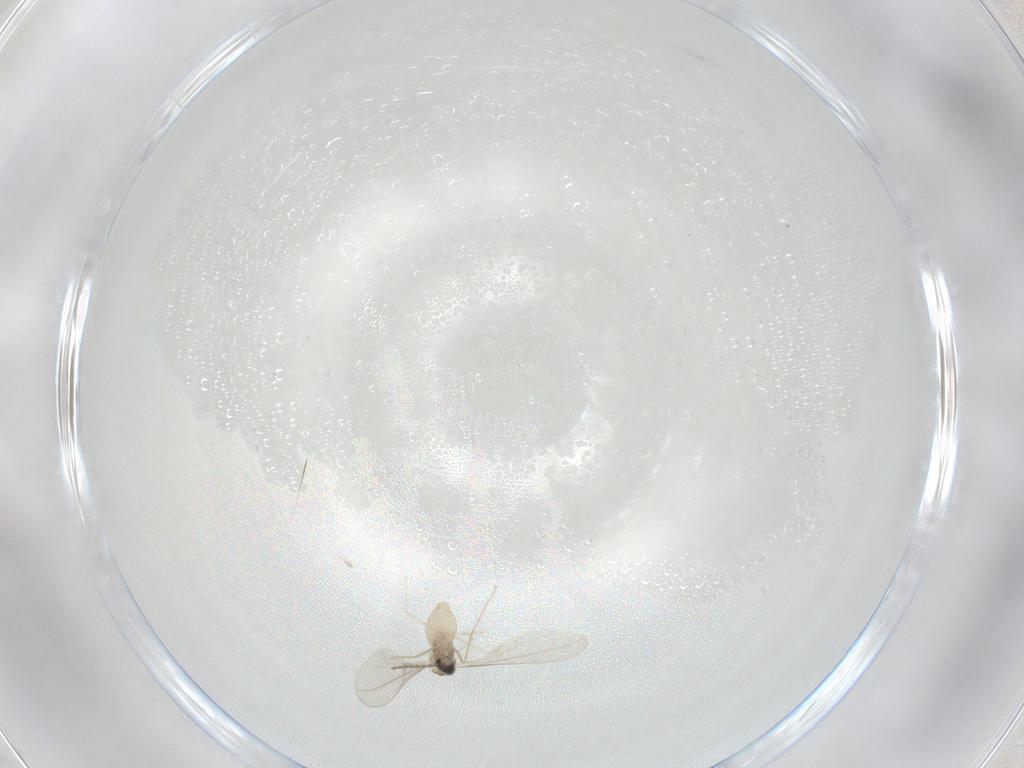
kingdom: Animalia
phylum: Arthropoda
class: Insecta
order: Diptera
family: Cecidomyiidae
